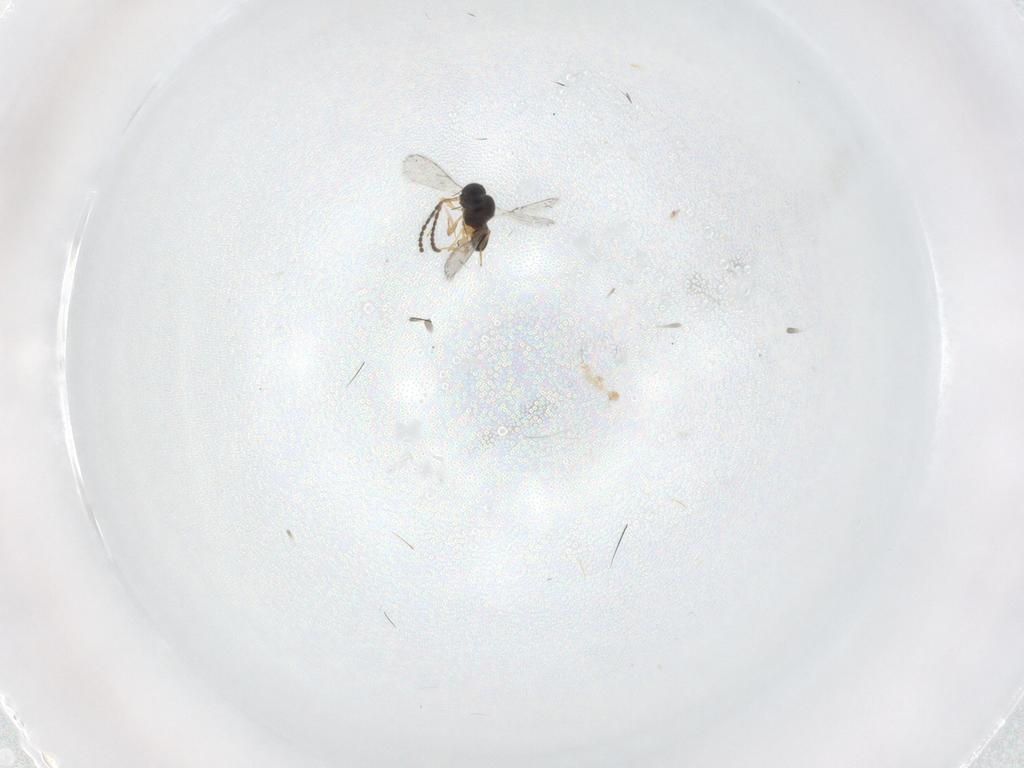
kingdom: Animalia
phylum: Arthropoda
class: Insecta
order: Hymenoptera
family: Scelionidae
